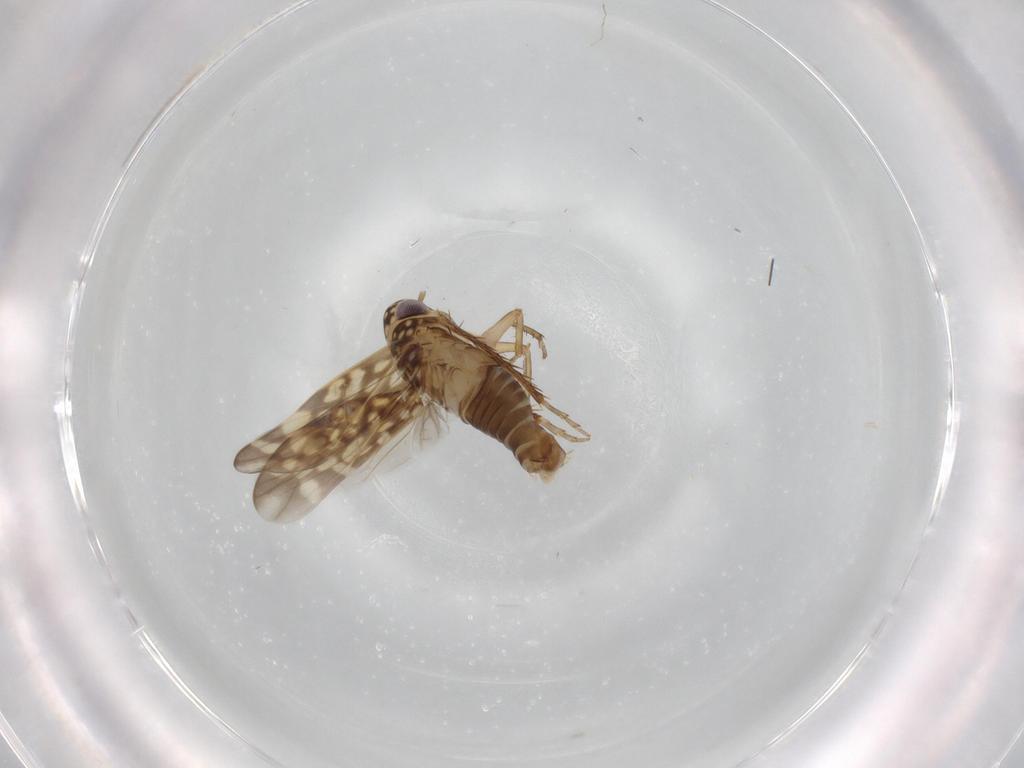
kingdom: Animalia
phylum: Arthropoda
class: Insecta
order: Hemiptera
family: Cicadellidae
